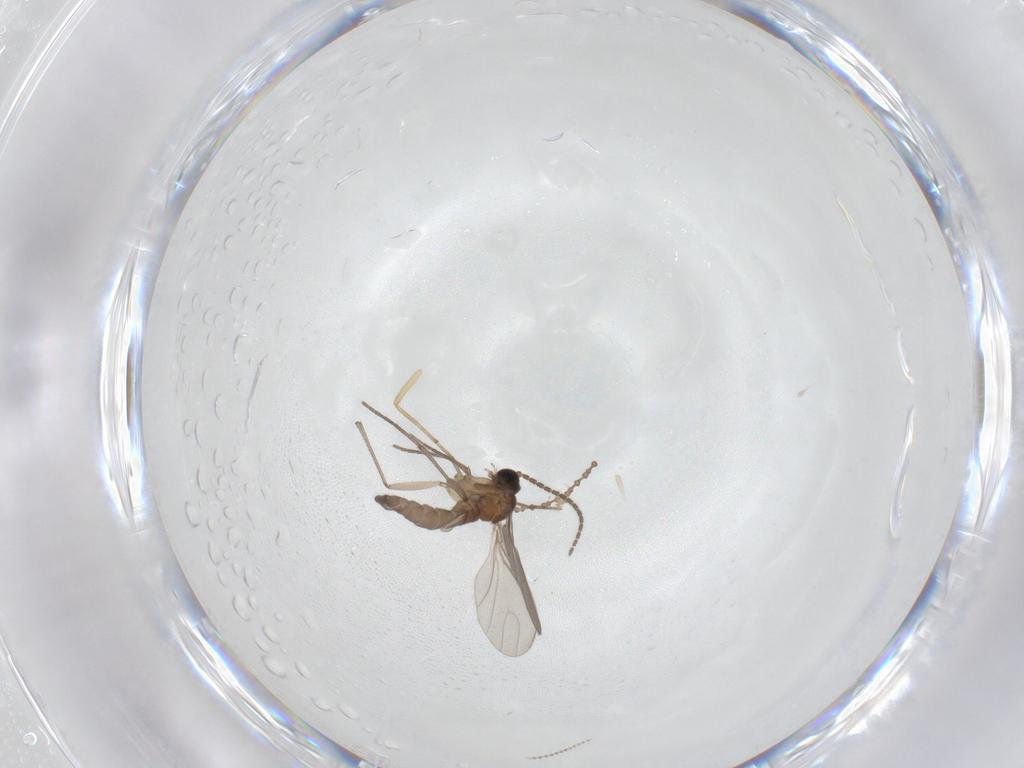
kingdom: Animalia
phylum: Arthropoda
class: Insecta
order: Diptera
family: Sciaridae
